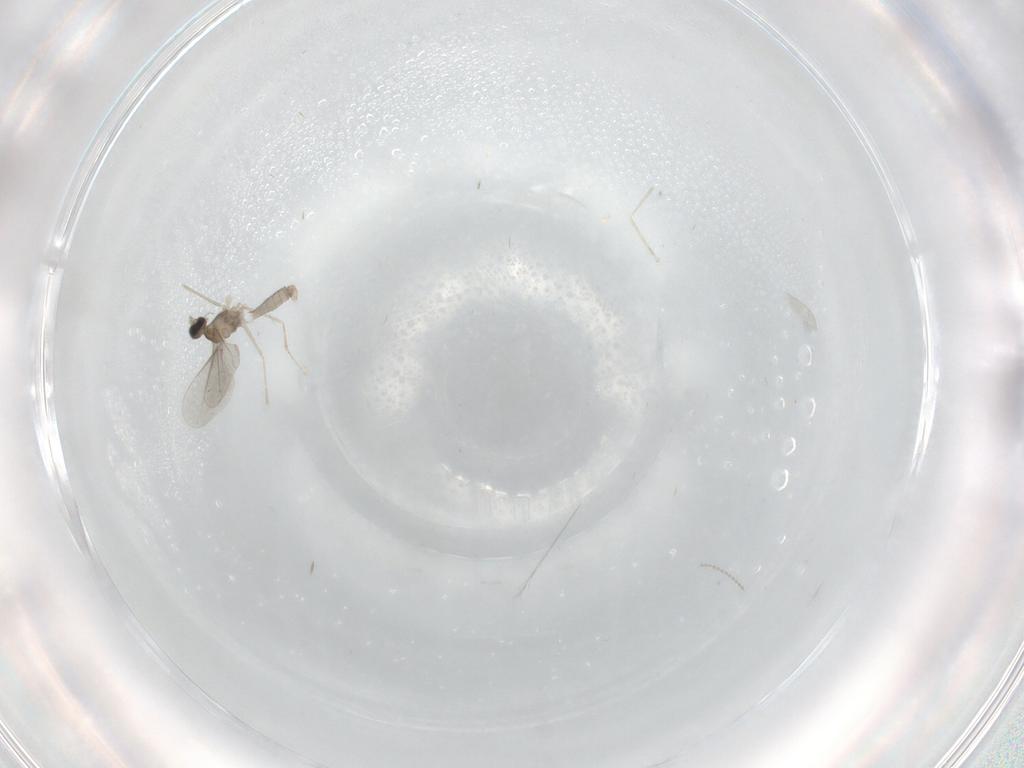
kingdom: Animalia
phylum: Arthropoda
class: Insecta
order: Diptera
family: Cecidomyiidae
